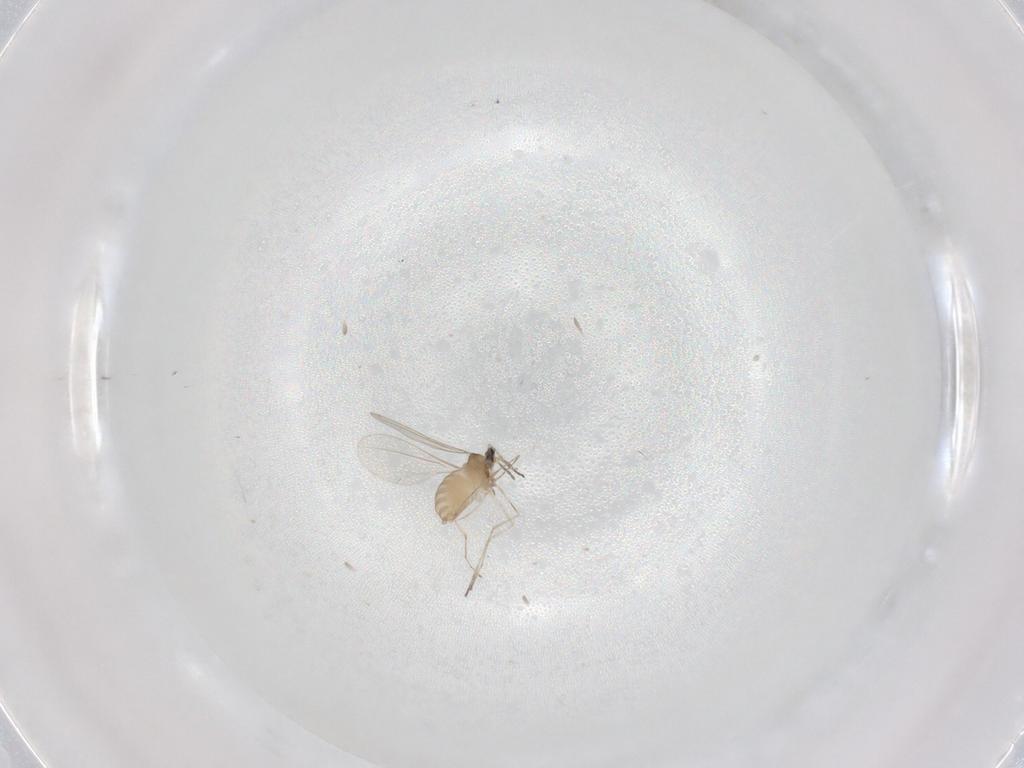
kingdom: Animalia
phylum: Arthropoda
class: Insecta
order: Diptera
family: Cecidomyiidae
